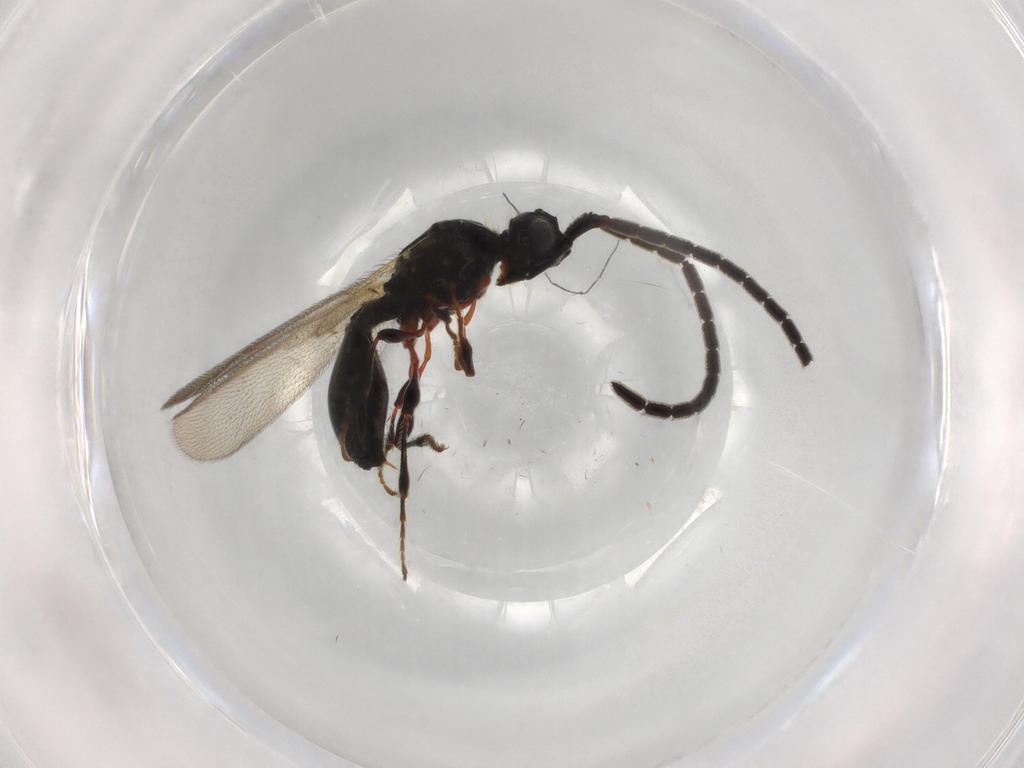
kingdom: Animalia
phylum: Arthropoda
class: Insecta
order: Hymenoptera
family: Diapriidae
